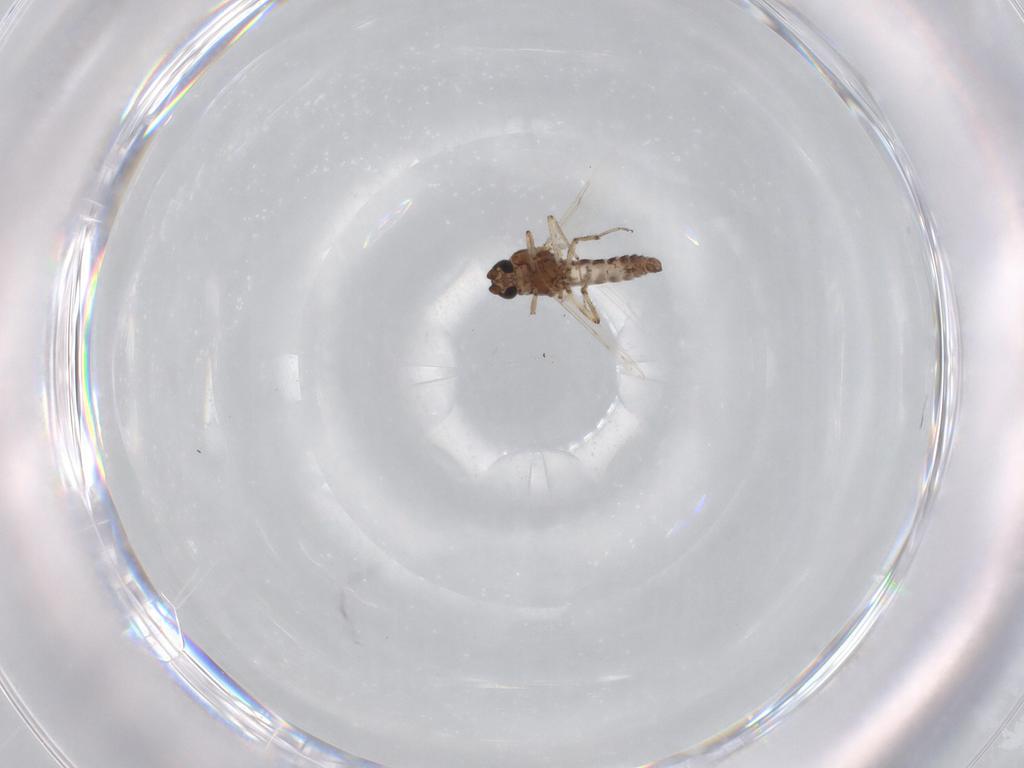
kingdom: Animalia
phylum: Arthropoda
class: Insecta
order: Diptera
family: Ceratopogonidae
